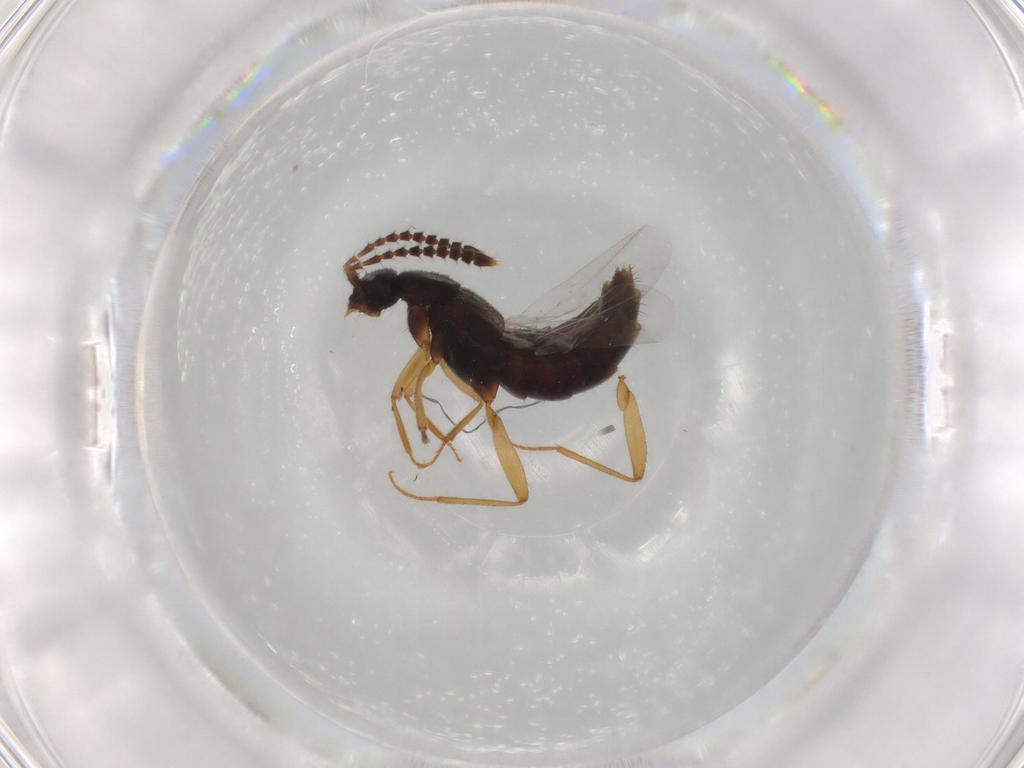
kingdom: Animalia
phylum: Arthropoda
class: Insecta
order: Coleoptera
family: Staphylinidae
